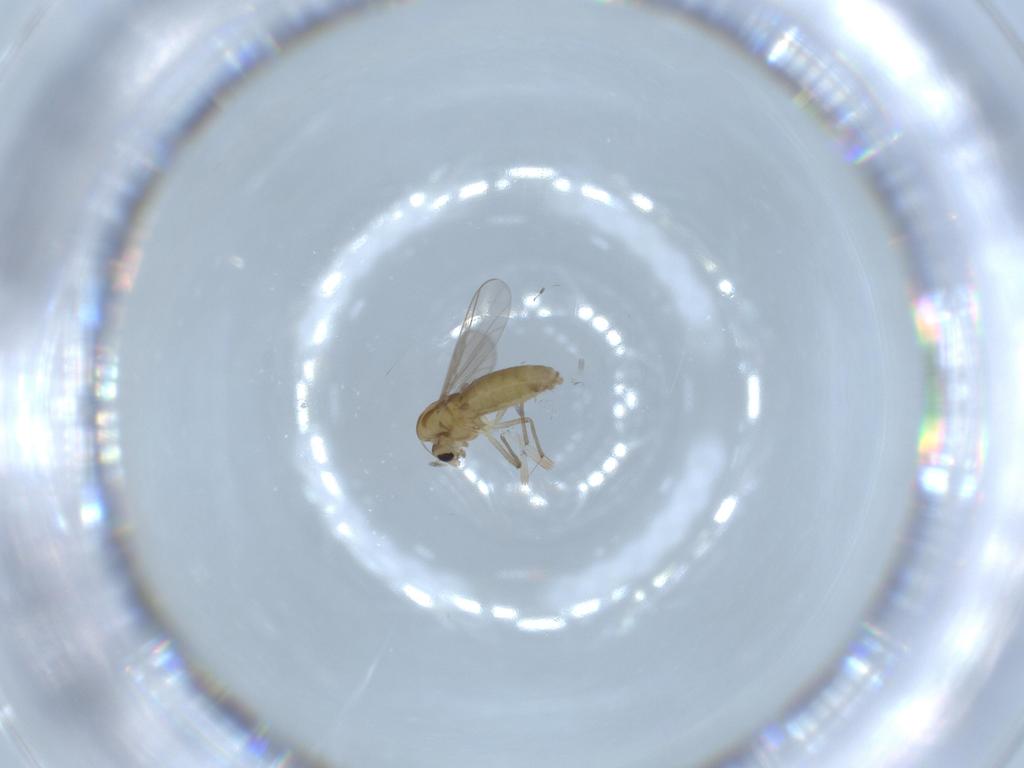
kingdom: Animalia
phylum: Arthropoda
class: Insecta
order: Diptera
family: Chironomidae
